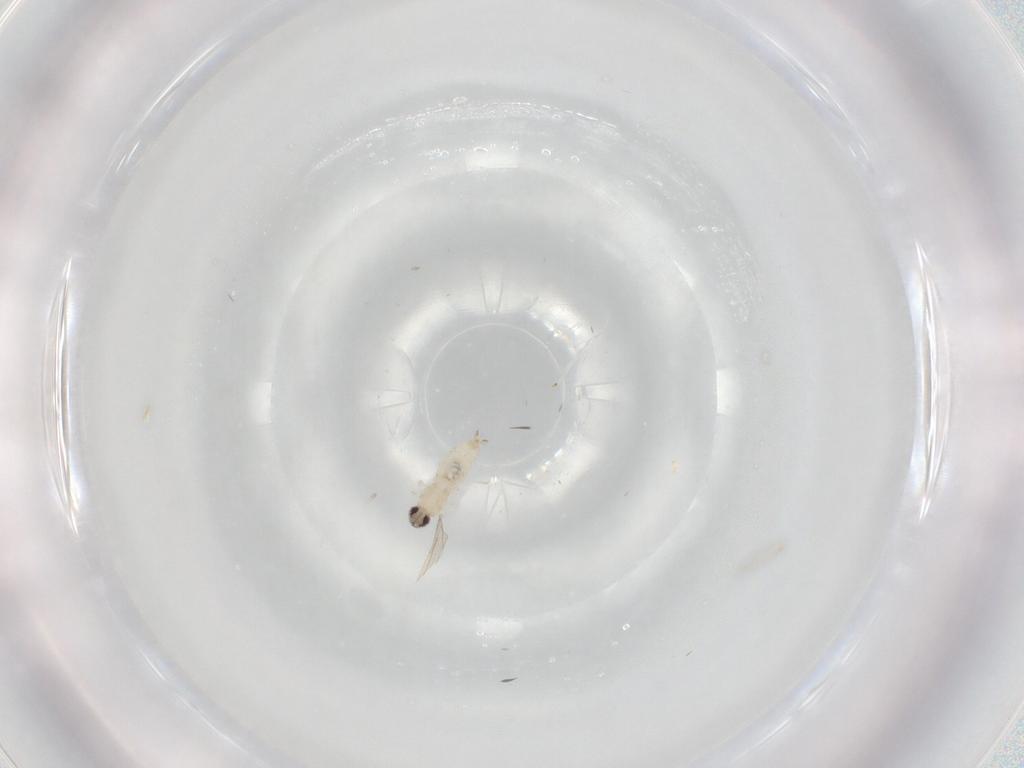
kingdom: Animalia
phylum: Arthropoda
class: Insecta
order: Diptera
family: Cecidomyiidae
